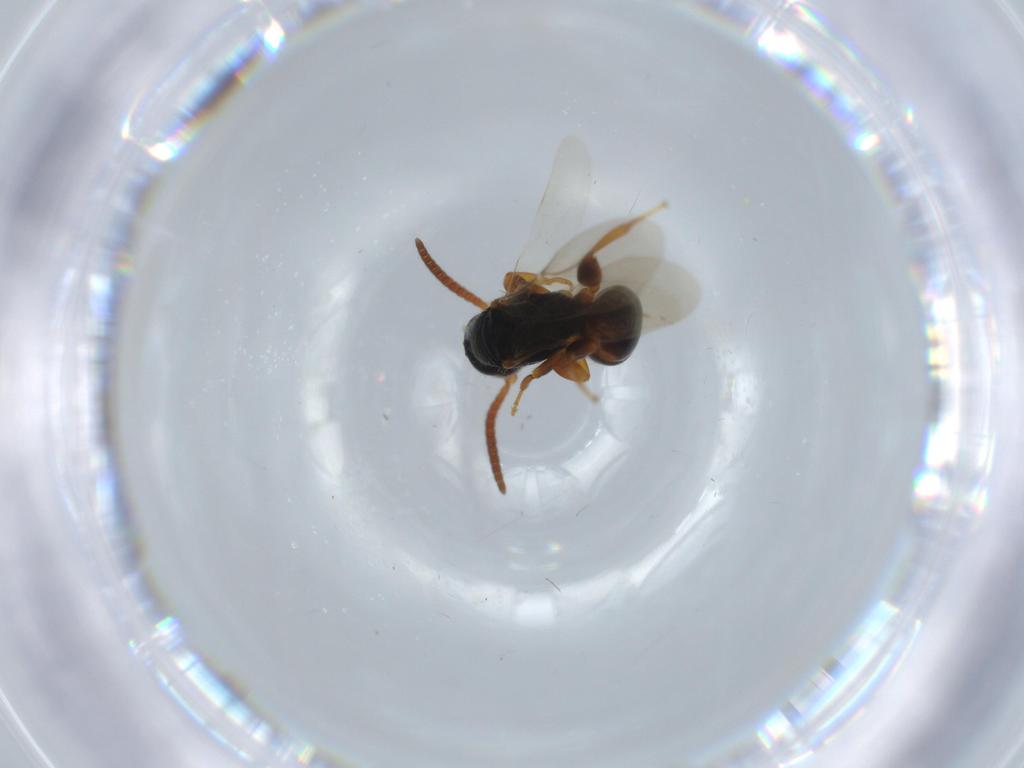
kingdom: Animalia
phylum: Arthropoda
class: Insecta
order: Hymenoptera
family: Bethylidae
